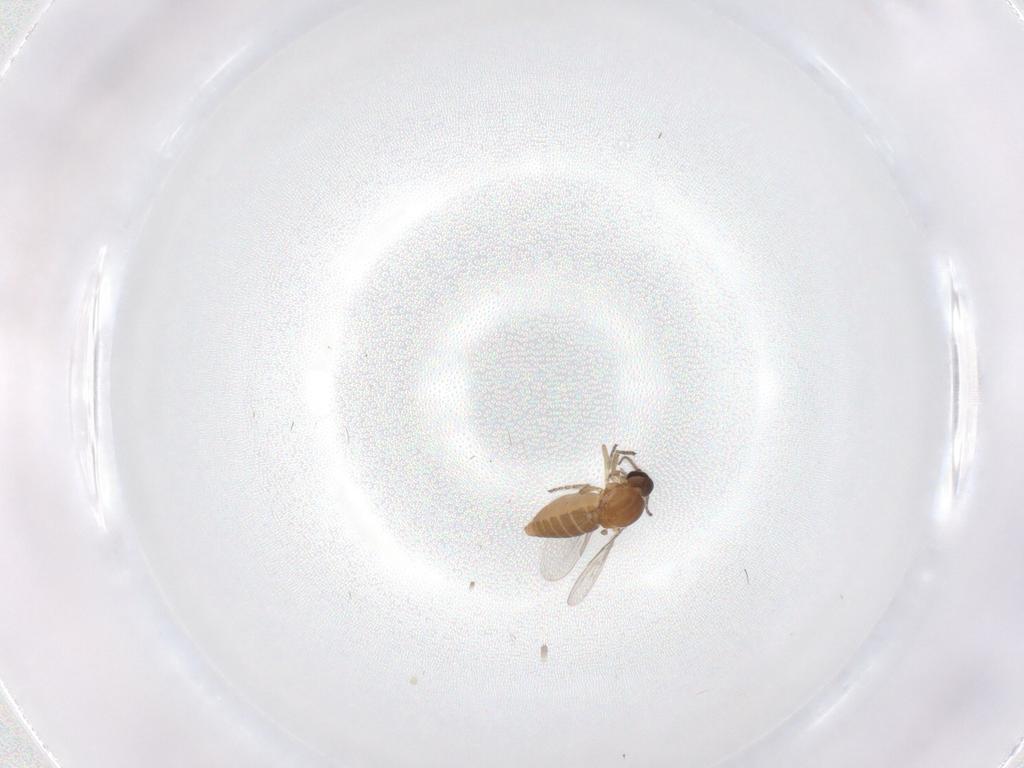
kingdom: Animalia
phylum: Arthropoda
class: Insecta
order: Diptera
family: Ceratopogonidae
